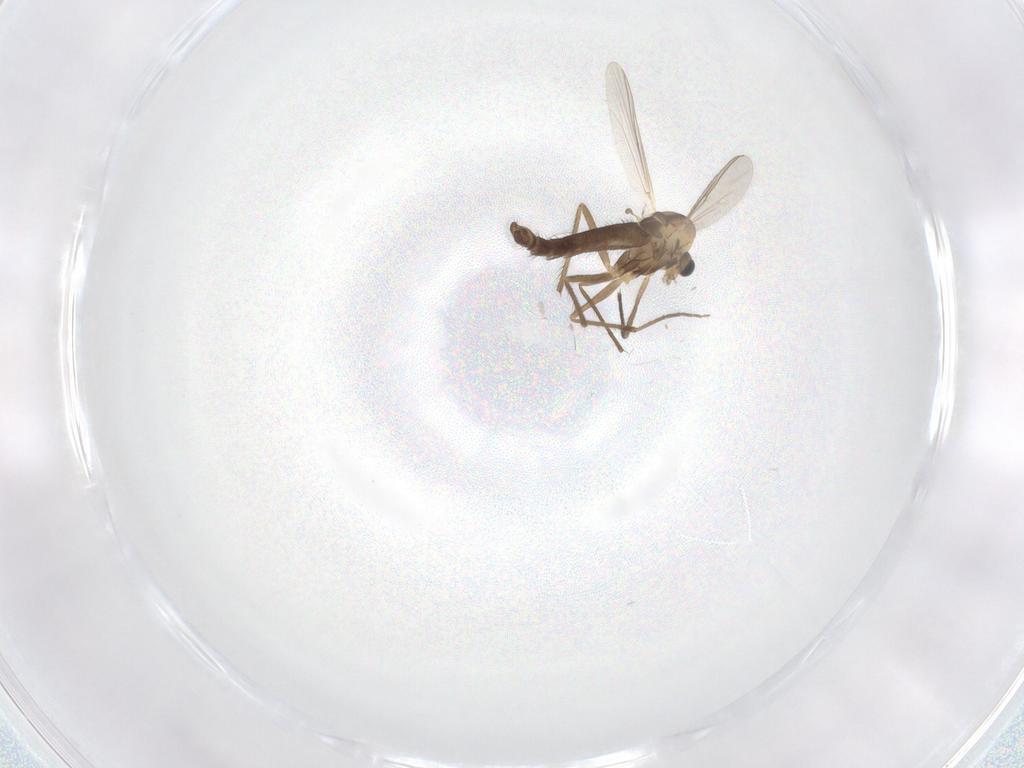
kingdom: Animalia
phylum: Arthropoda
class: Insecta
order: Diptera
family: Chironomidae
